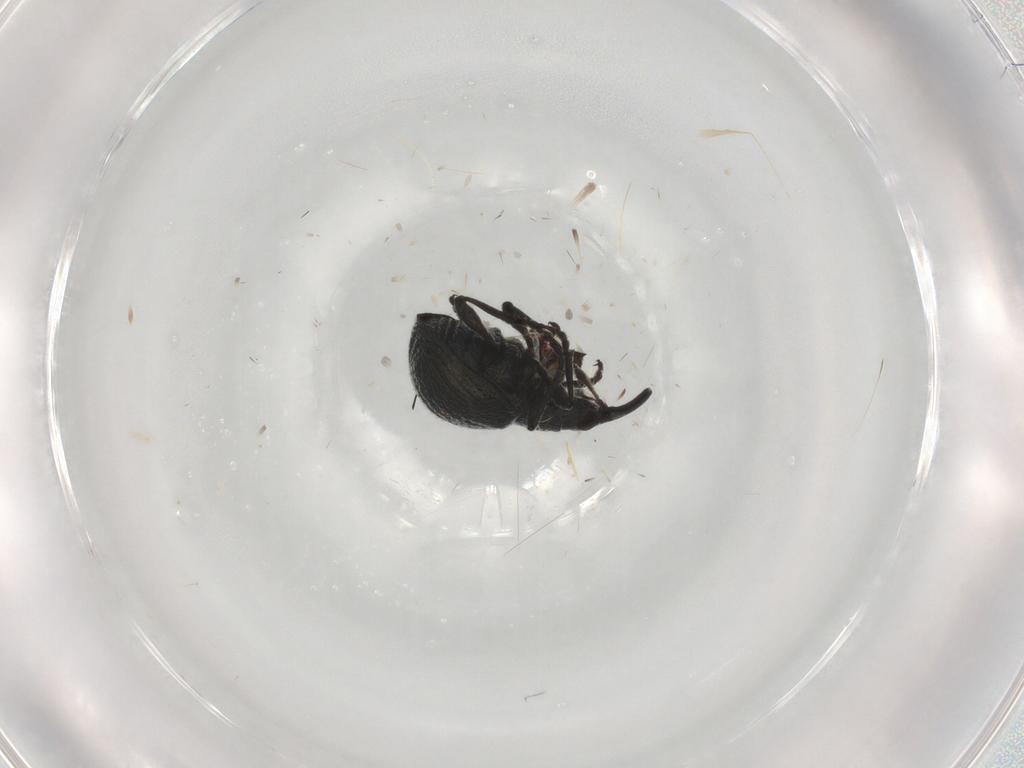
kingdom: Animalia
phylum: Arthropoda
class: Insecta
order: Coleoptera
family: Brentidae
